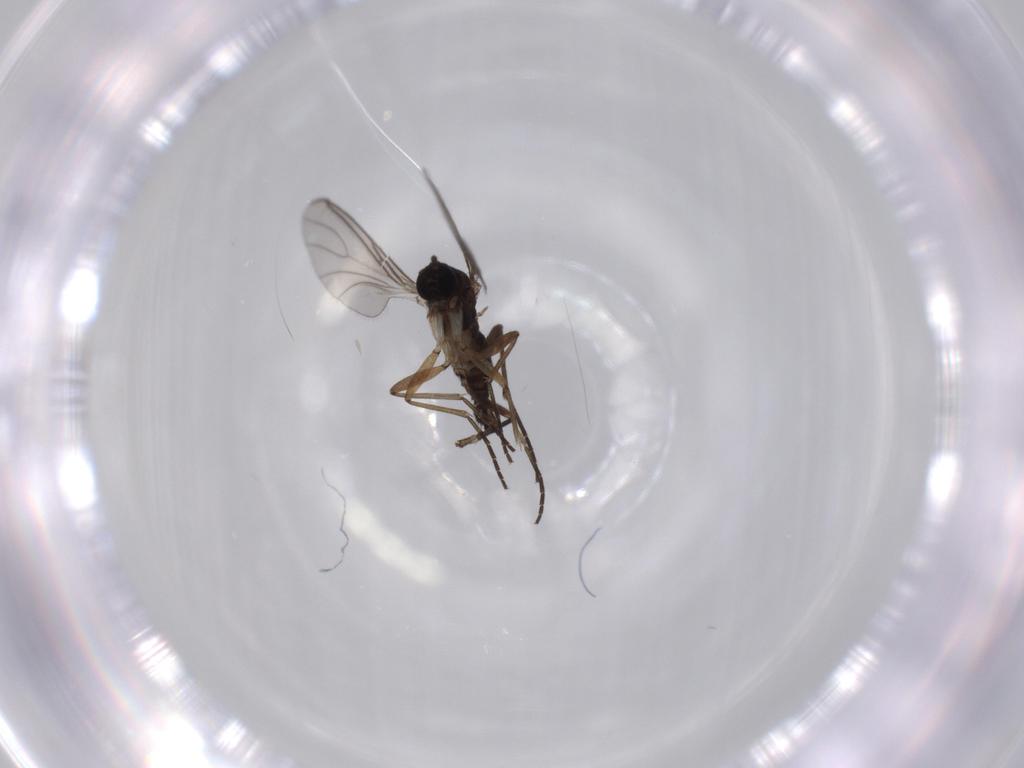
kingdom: Animalia
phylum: Arthropoda
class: Insecta
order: Diptera
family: Sciaridae
